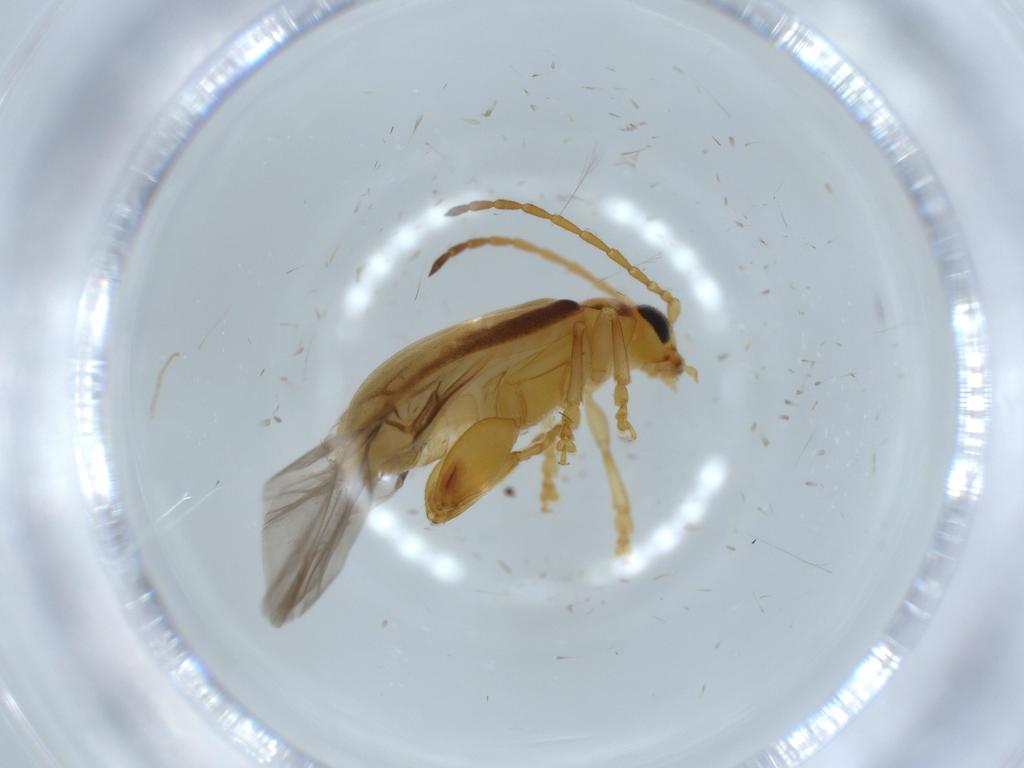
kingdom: Animalia
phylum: Arthropoda
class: Insecta
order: Coleoptera
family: Chrysomelidae
